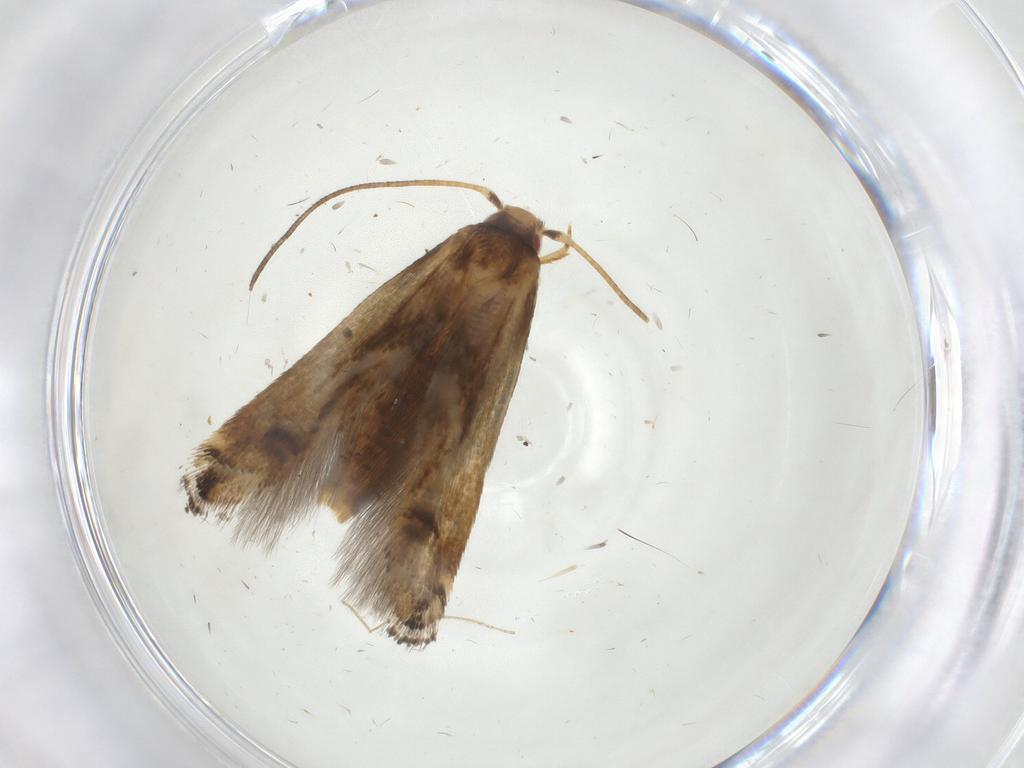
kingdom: Animalia
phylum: Arthropoda
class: Insecta
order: Lepidoptera
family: Momphidae
